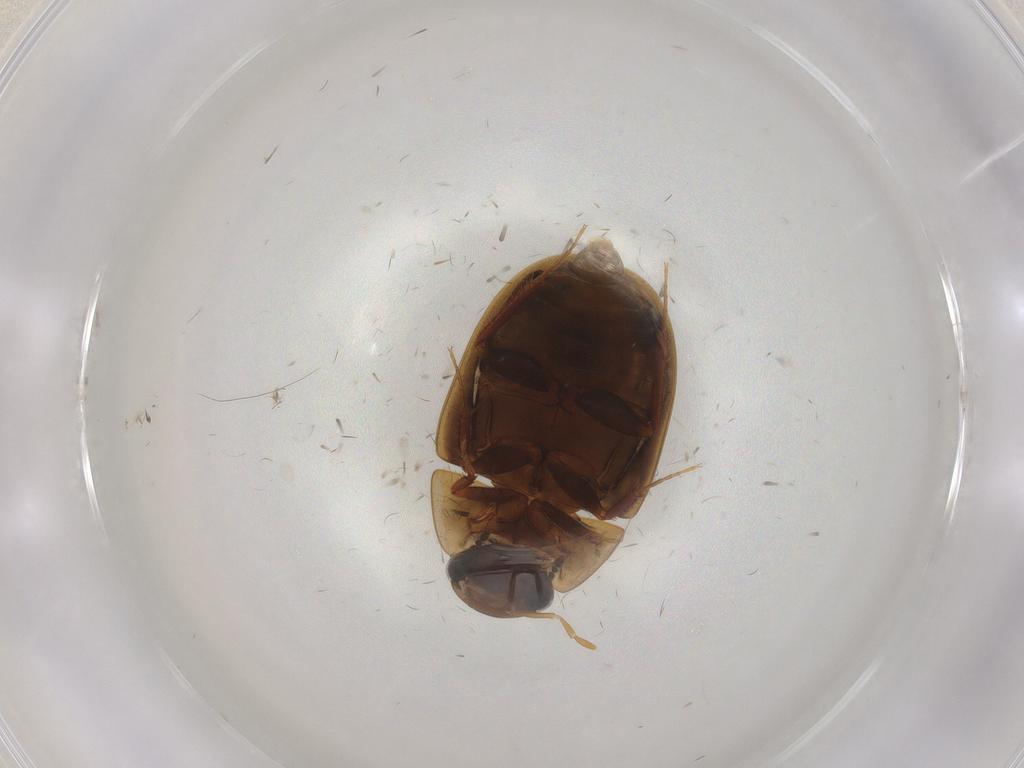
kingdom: Animalia
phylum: Arthropoda
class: Insecta
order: Coleoptera
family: Hydrophilidae
